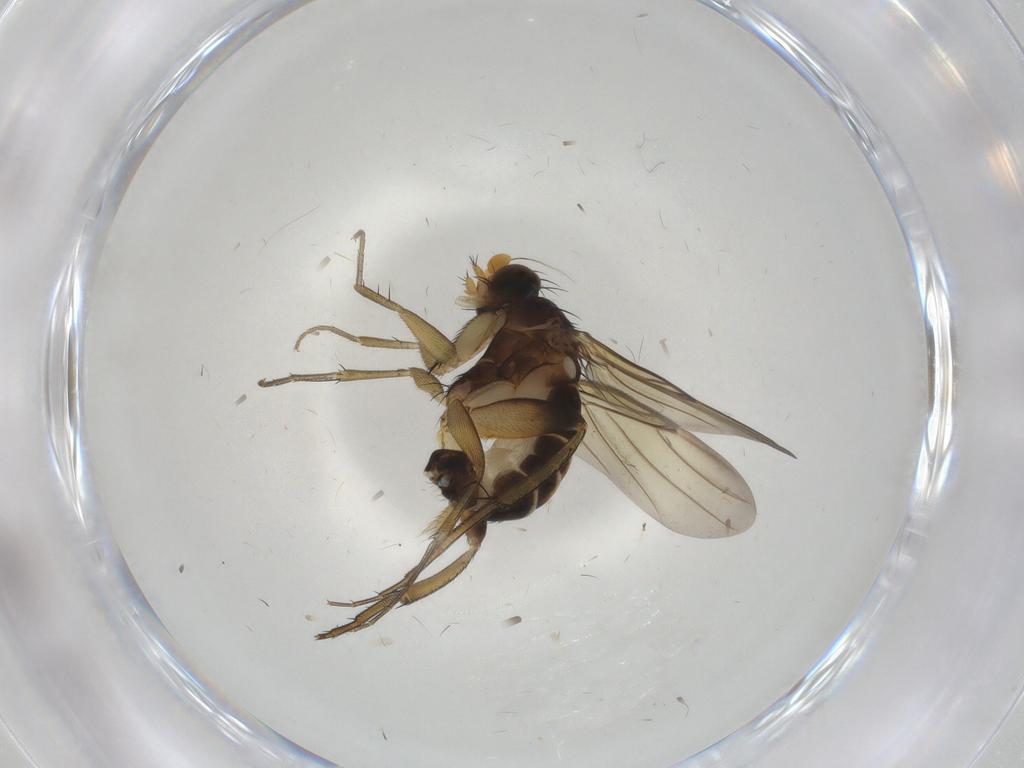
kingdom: Animalia
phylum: Arthropoda
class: Insecta
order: Diptera
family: Phoridae
